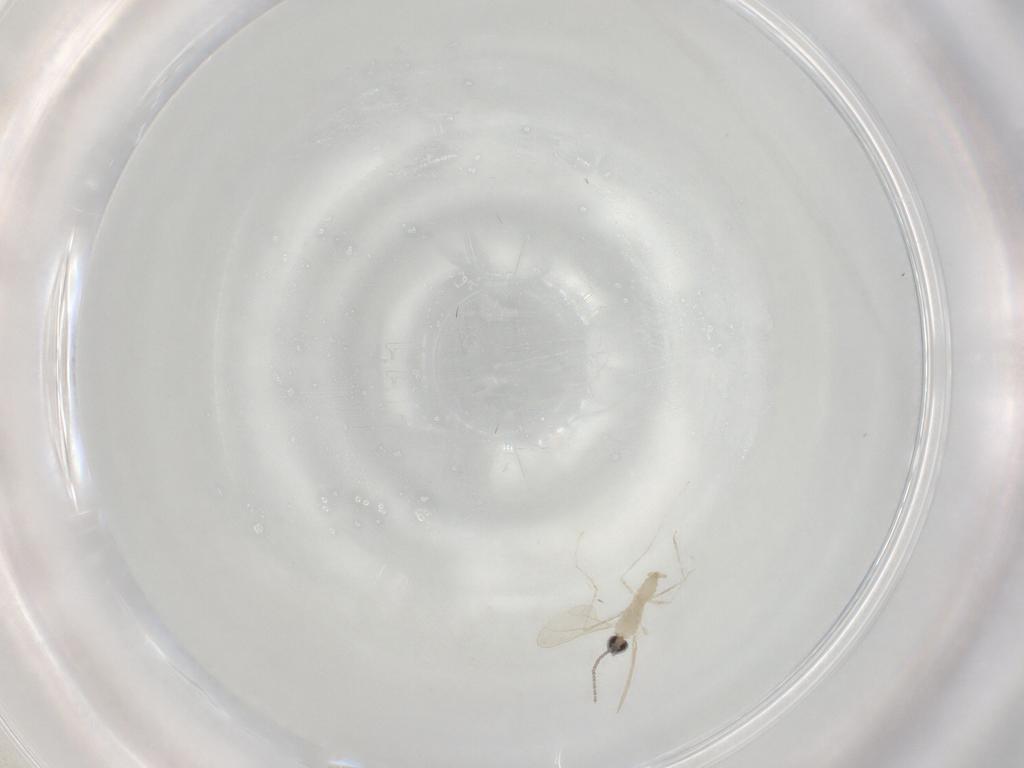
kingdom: Animalia
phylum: Arthropoda
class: Insecta
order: Diptera
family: Cecidomyiidae
